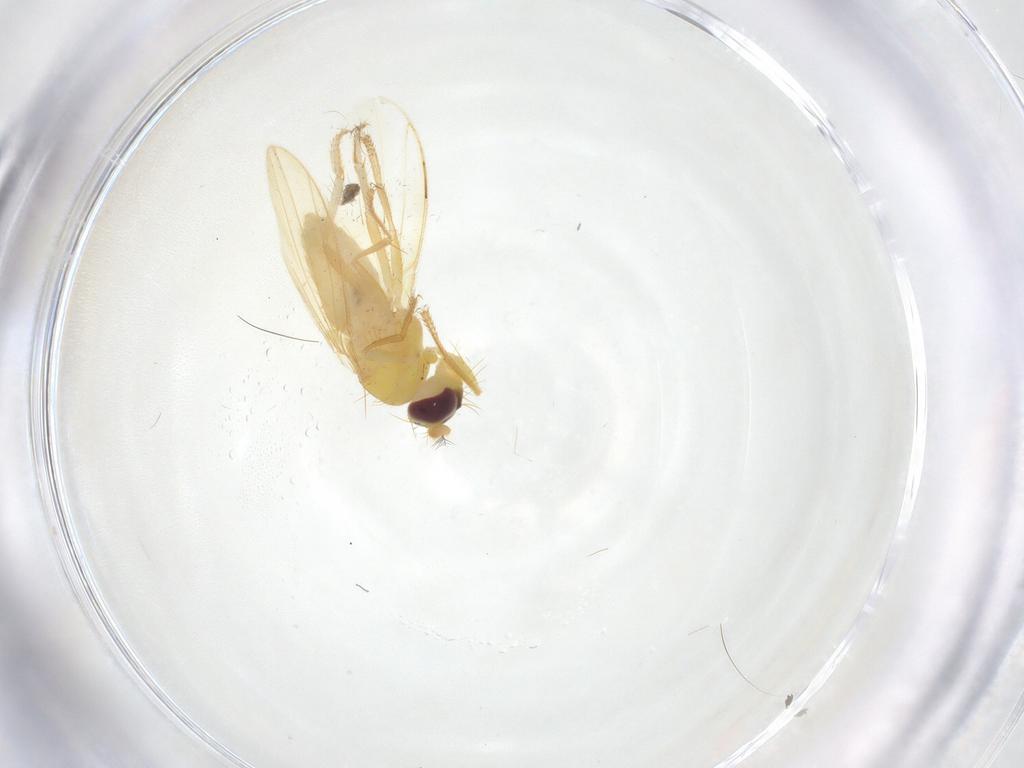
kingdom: Animalia
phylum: Arthropoda
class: Insecta
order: Diptera
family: Periscelididae
